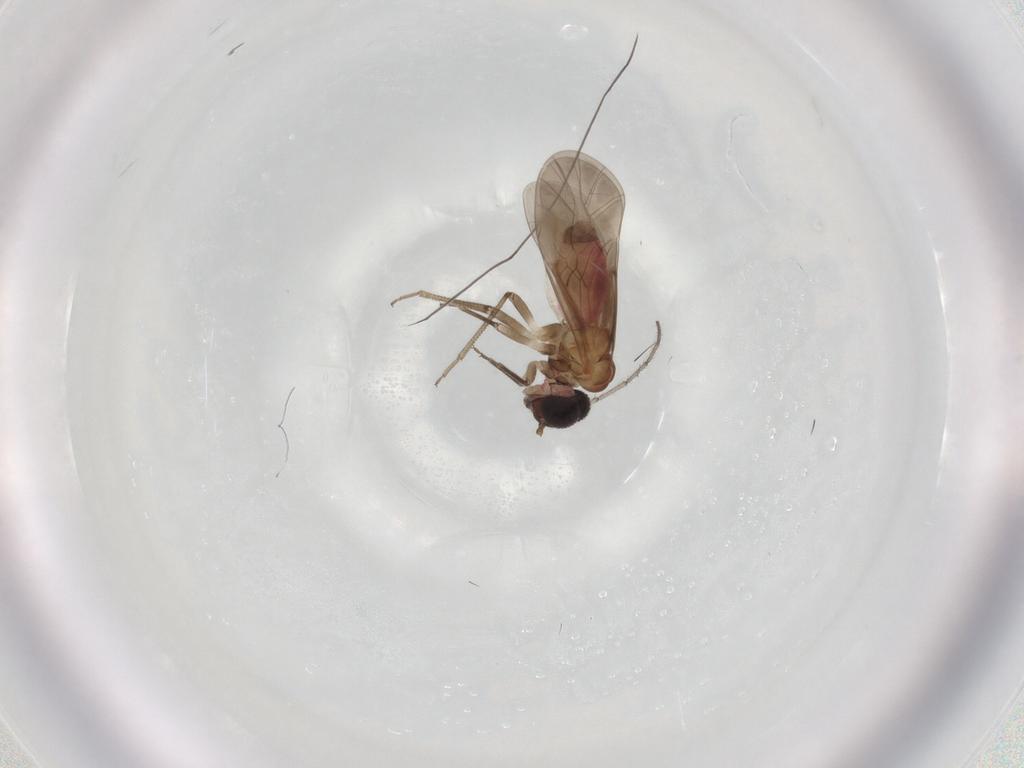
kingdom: Animalia
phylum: Arthropoda
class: Insecta
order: Psocodea
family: Lachesillidae
